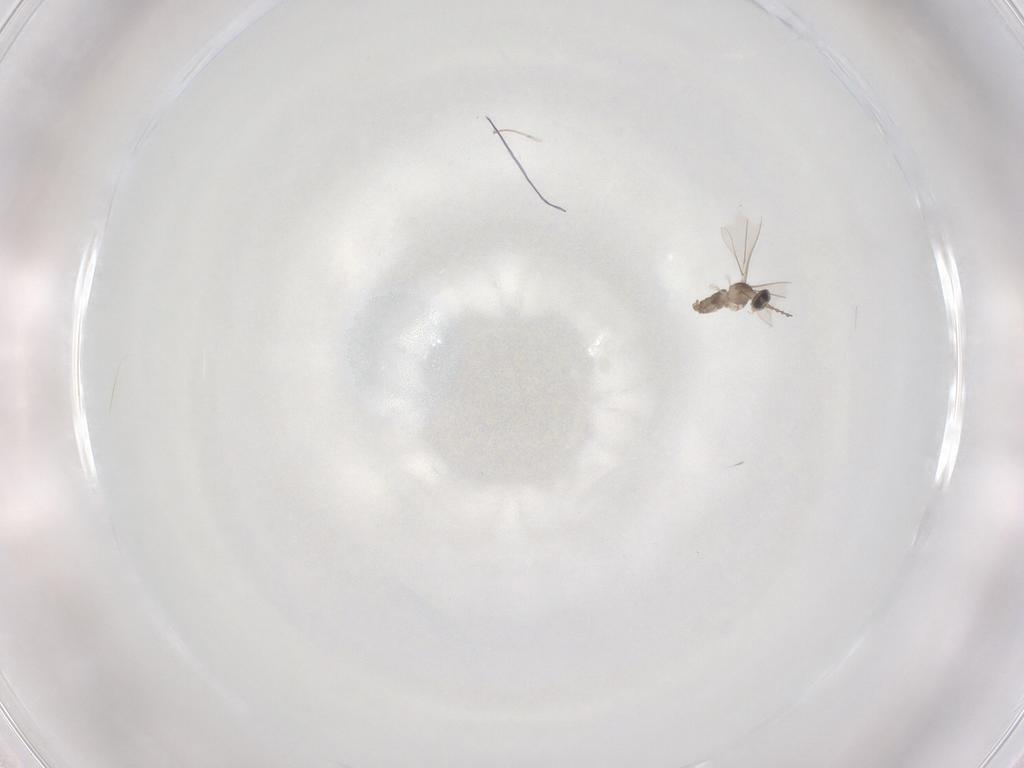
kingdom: Animalia
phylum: Arthropoda
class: Insecta
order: Diptera
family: Cecidomyiidae
